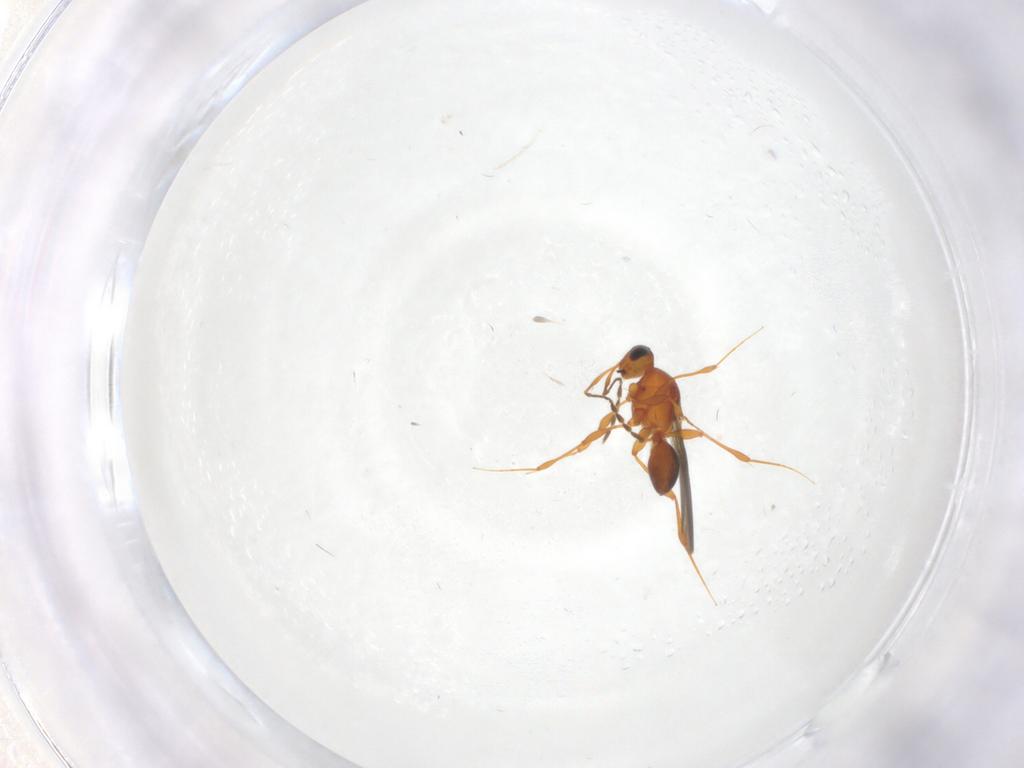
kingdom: Animalia
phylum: Arthropoda
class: Insecta
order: Hymenoptera
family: Platygastridae
